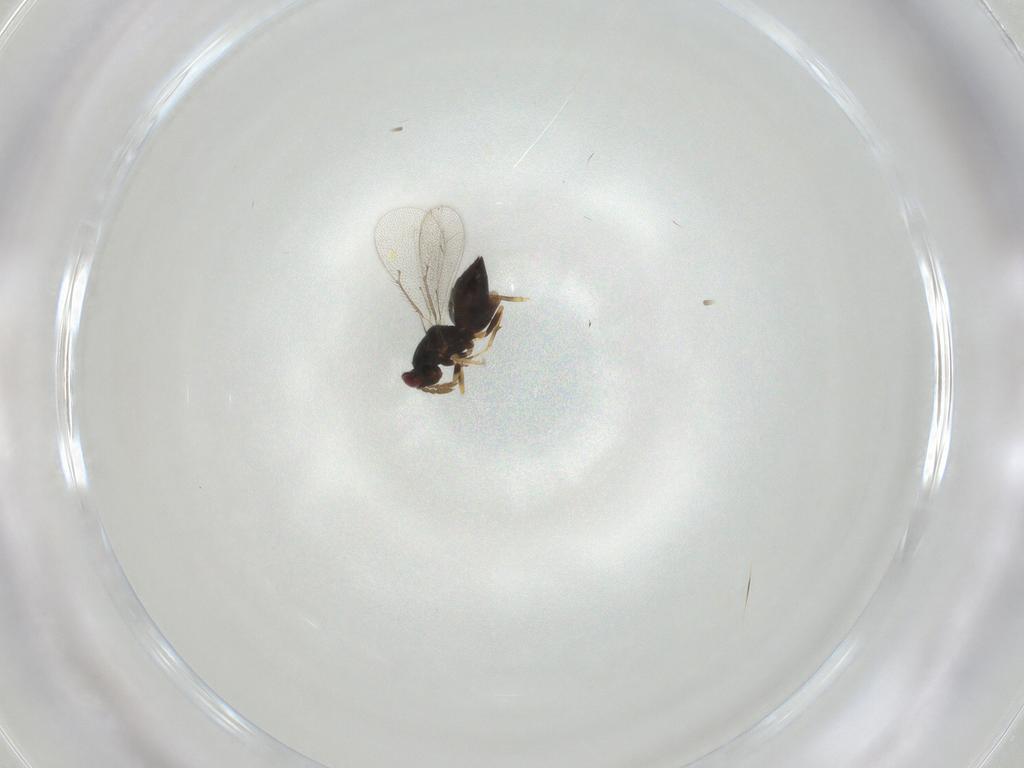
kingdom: Animalia
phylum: Arthropoda
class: Insecta
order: Hymenoptera
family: Eulophidae
